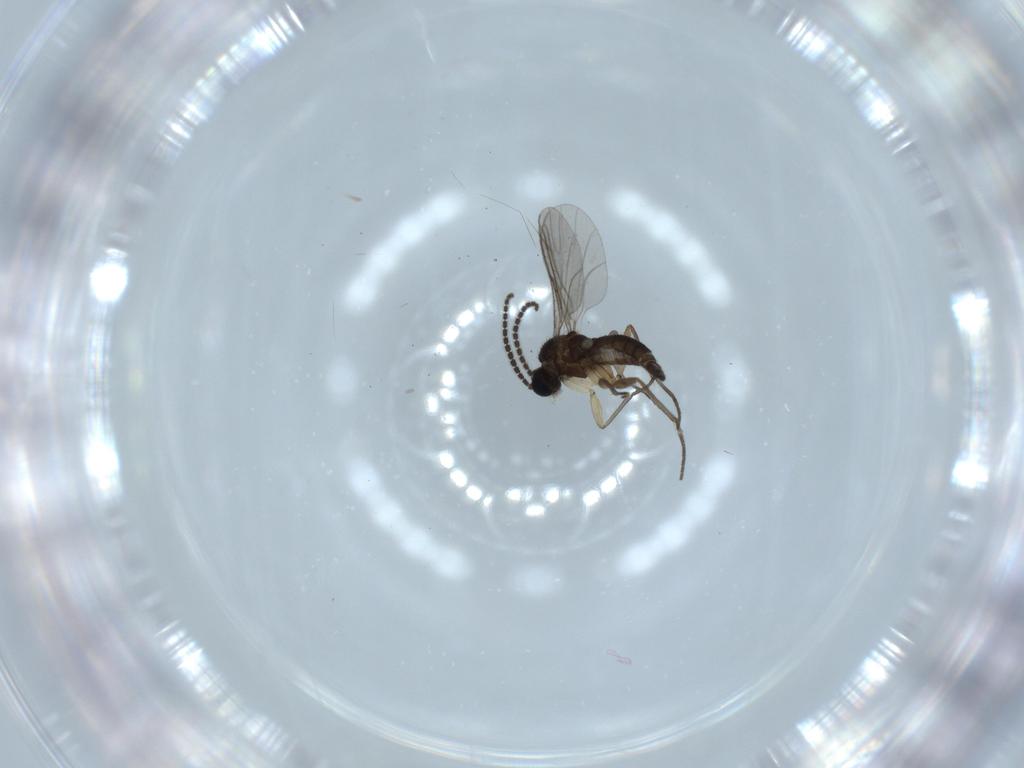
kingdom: Animalia
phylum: Arthropoda
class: Insecta
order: Diptera
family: Sciaridae
